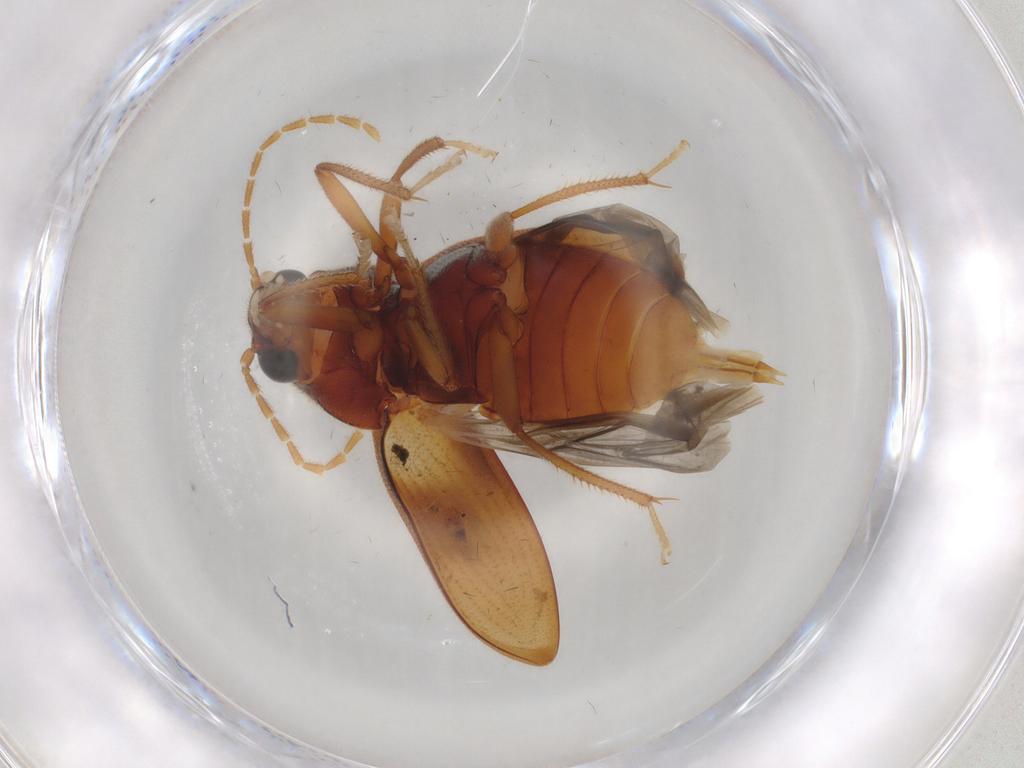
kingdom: Animalia
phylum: Arthropoda
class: Insecta
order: Coleoptera
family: Ptilodactylidae
